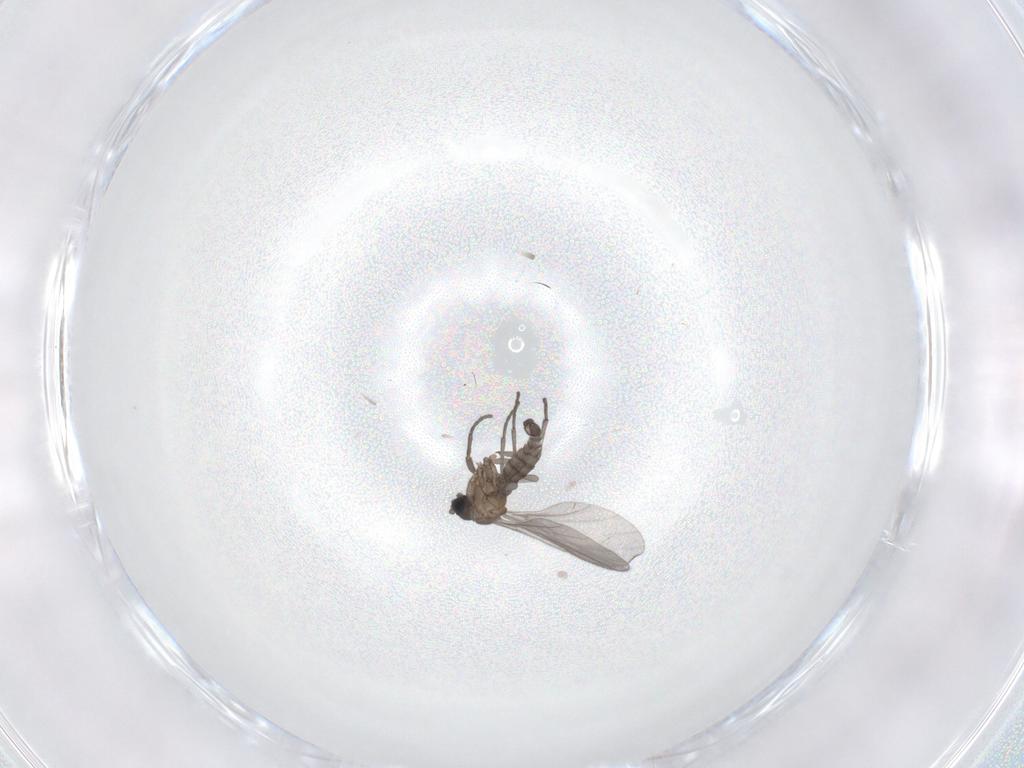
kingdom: Animalia
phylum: Arthropoda
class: Insecta
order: Diptera
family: Sciaridae
